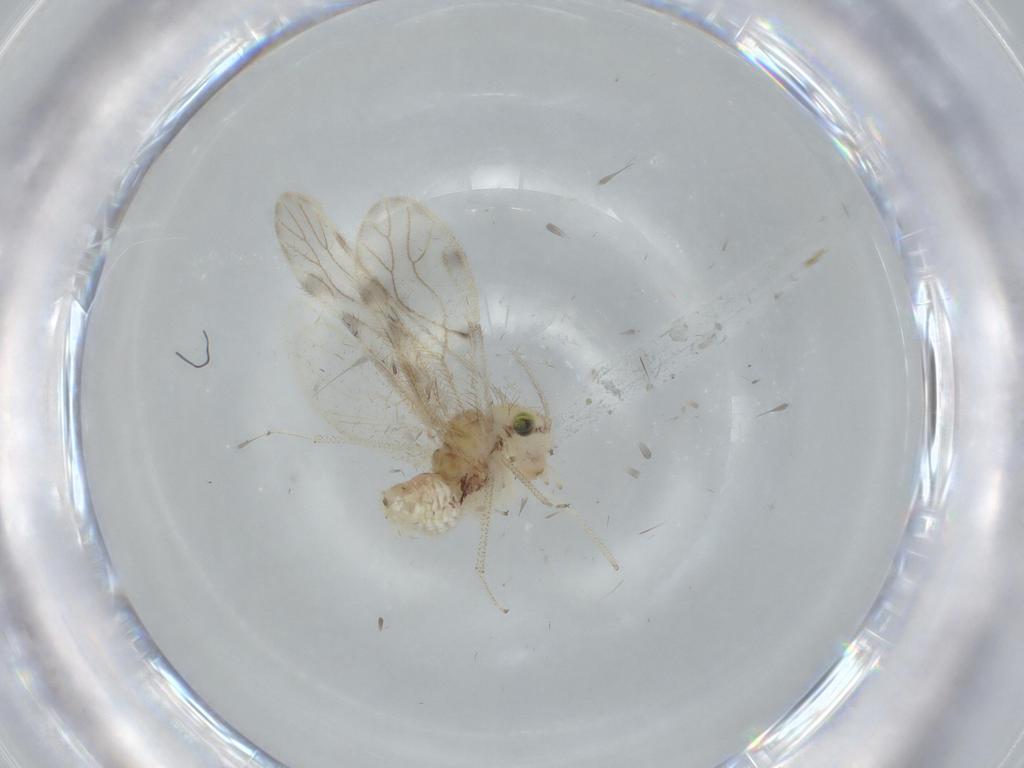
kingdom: Animalia
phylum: Arthropoda
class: Insecta
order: Psocodea
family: Pseudocaeciliidae
